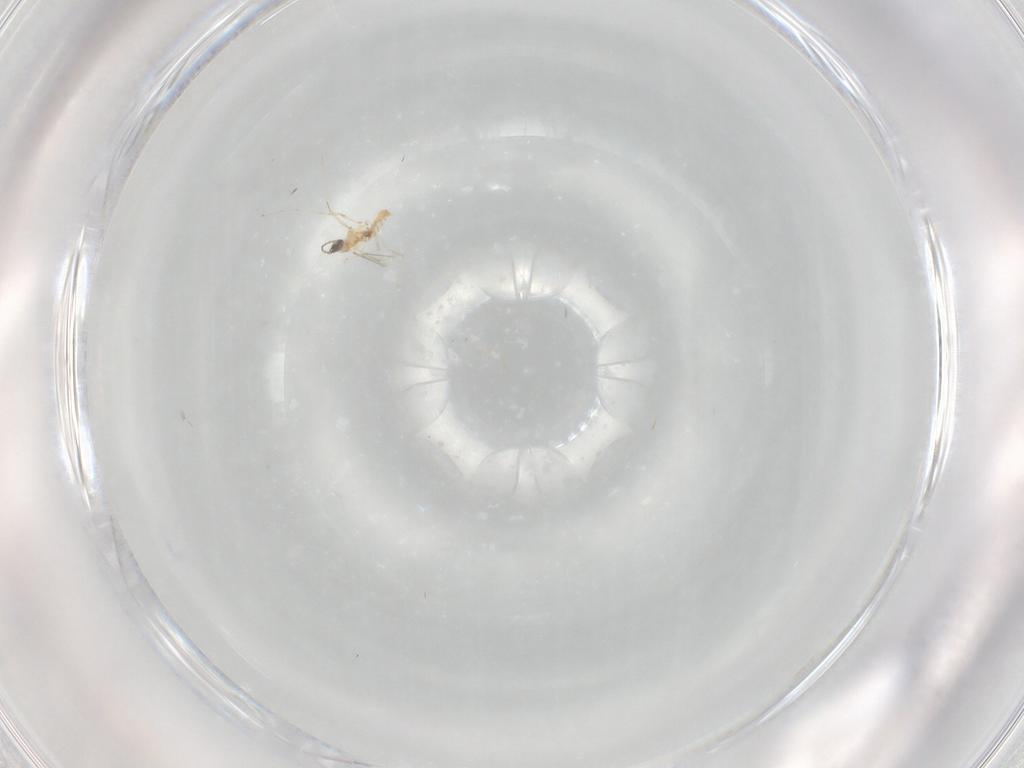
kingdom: Animalia
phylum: Arthropoda
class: Insecta
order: Diptera
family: Cecidomyiidae
